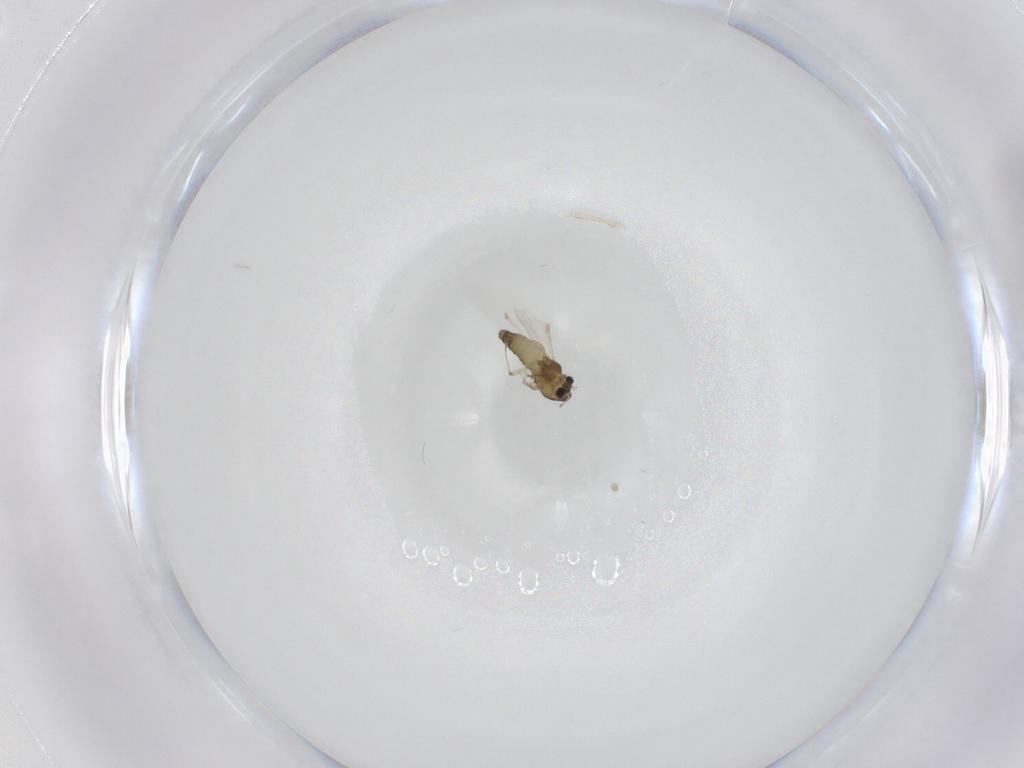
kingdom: Animalia
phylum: Arthropoda
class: Insecta
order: Diptera
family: Chironomidae
